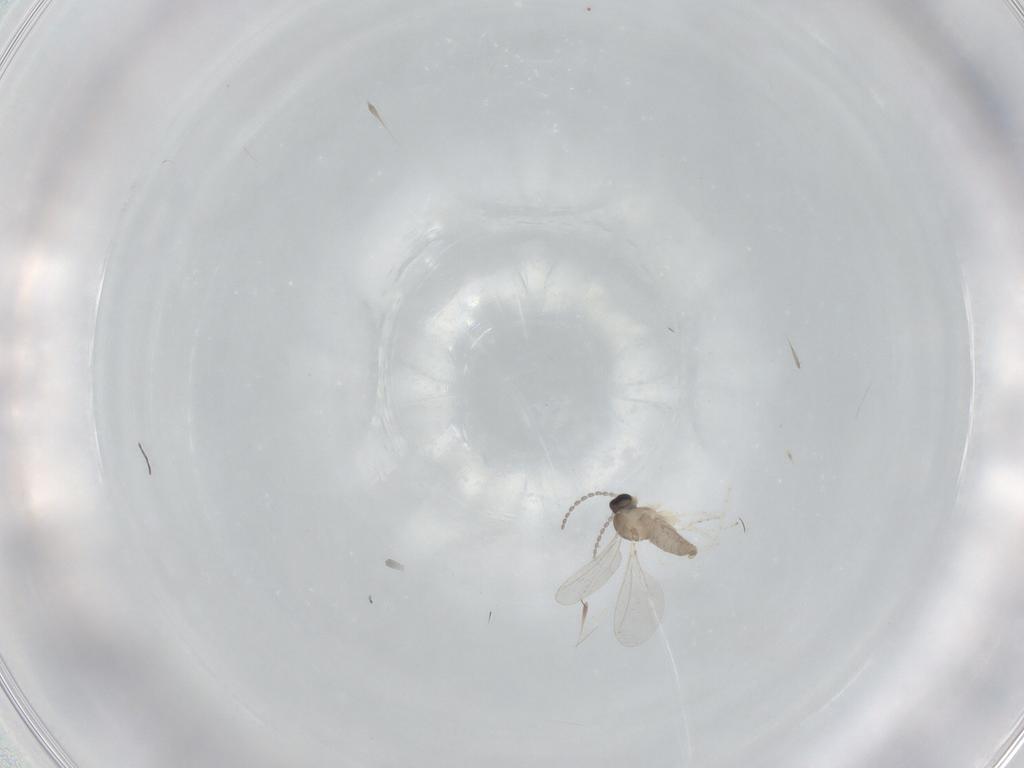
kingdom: Animalia
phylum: Arthropoda
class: Insecta
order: Diptera
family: Cecidomyiidae
